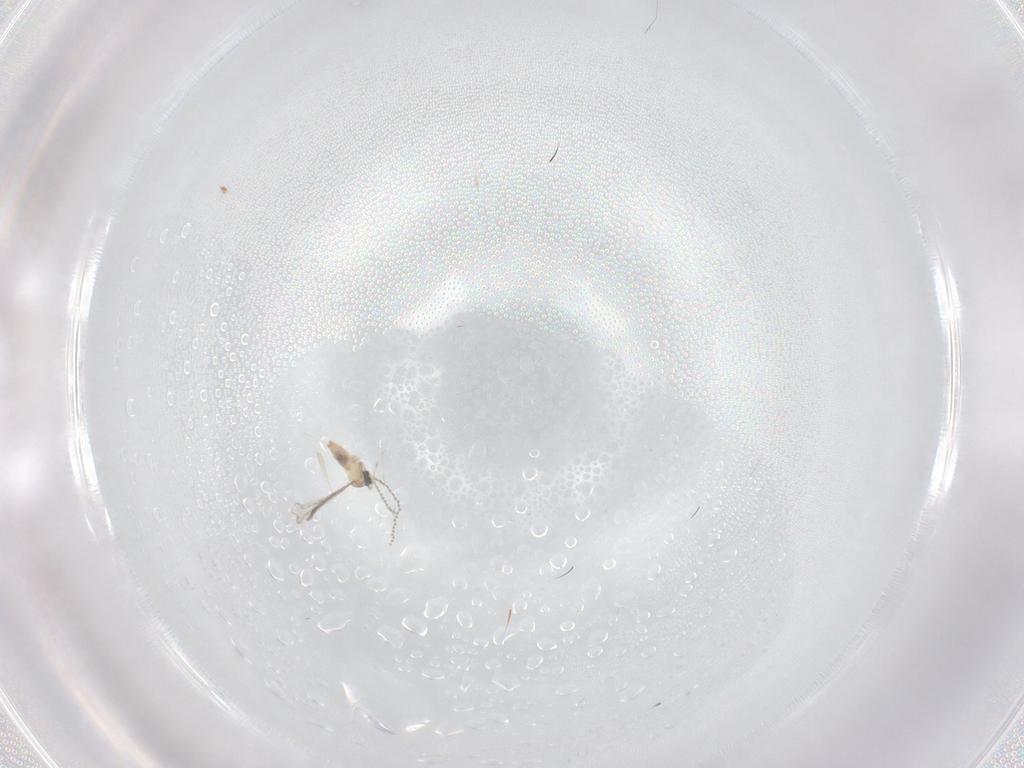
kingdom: Animalia
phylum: Arthropoda
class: Insecta
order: Diptera
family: Cecidomyiidae
